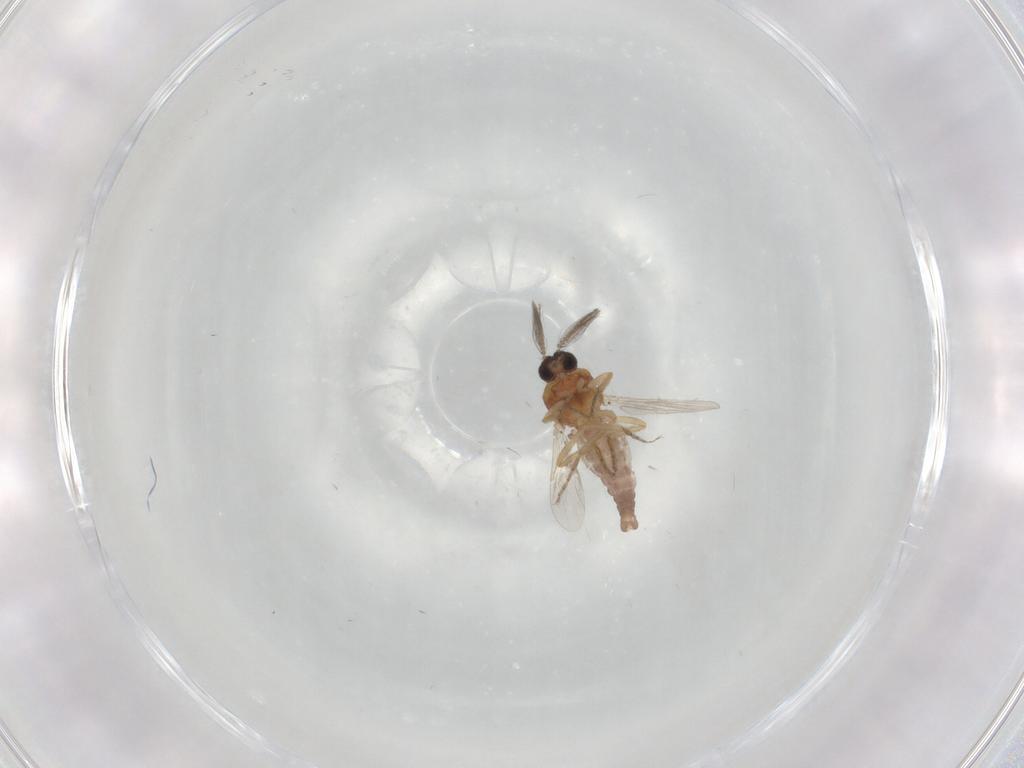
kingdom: Animalia
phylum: Arthropoda
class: Insecta
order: Diptera
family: Ceratopogonidae
